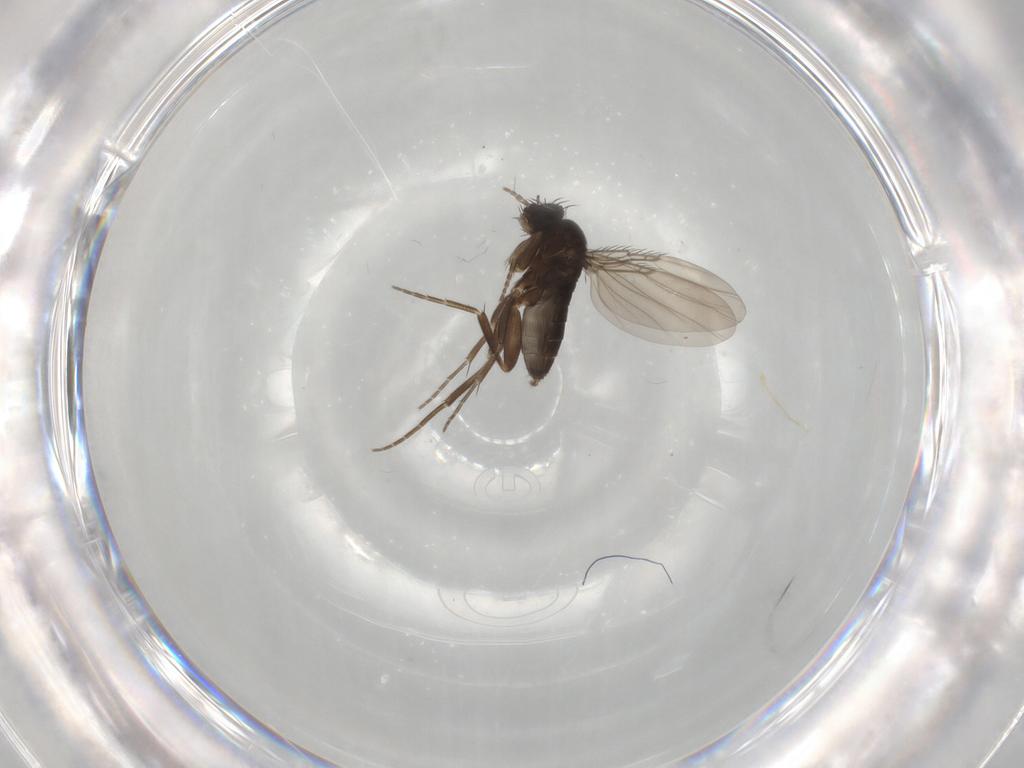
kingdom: Animalia
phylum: Arthropoda
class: Insecta
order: Diptera
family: Phoridae
